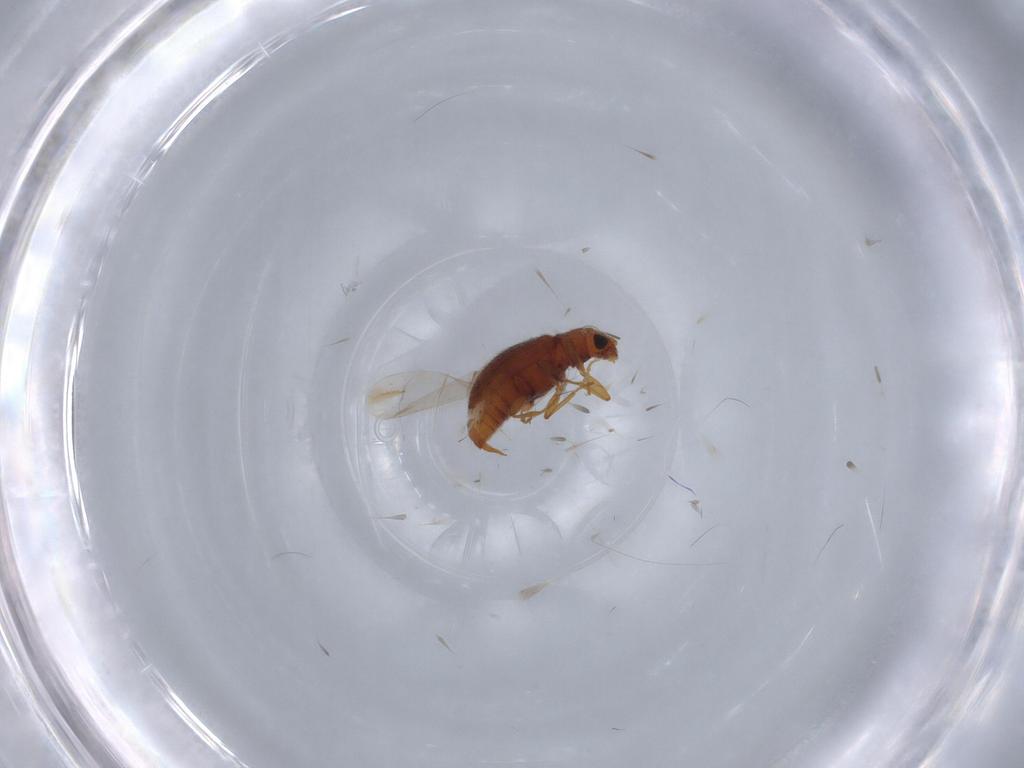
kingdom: Animalia
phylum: Arthropoda
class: Insecta
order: Coleoptera
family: Latridiidae
